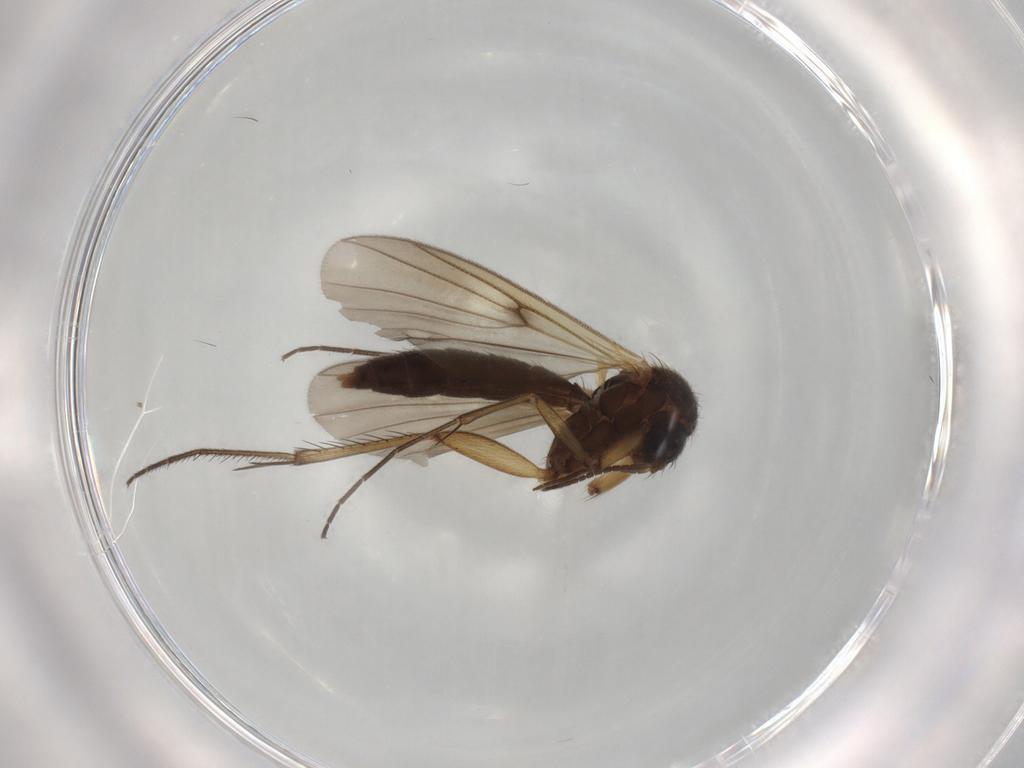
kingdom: Animalia
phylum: Arthropoda
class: Insecta
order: Diptera
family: Mycetophilidae
